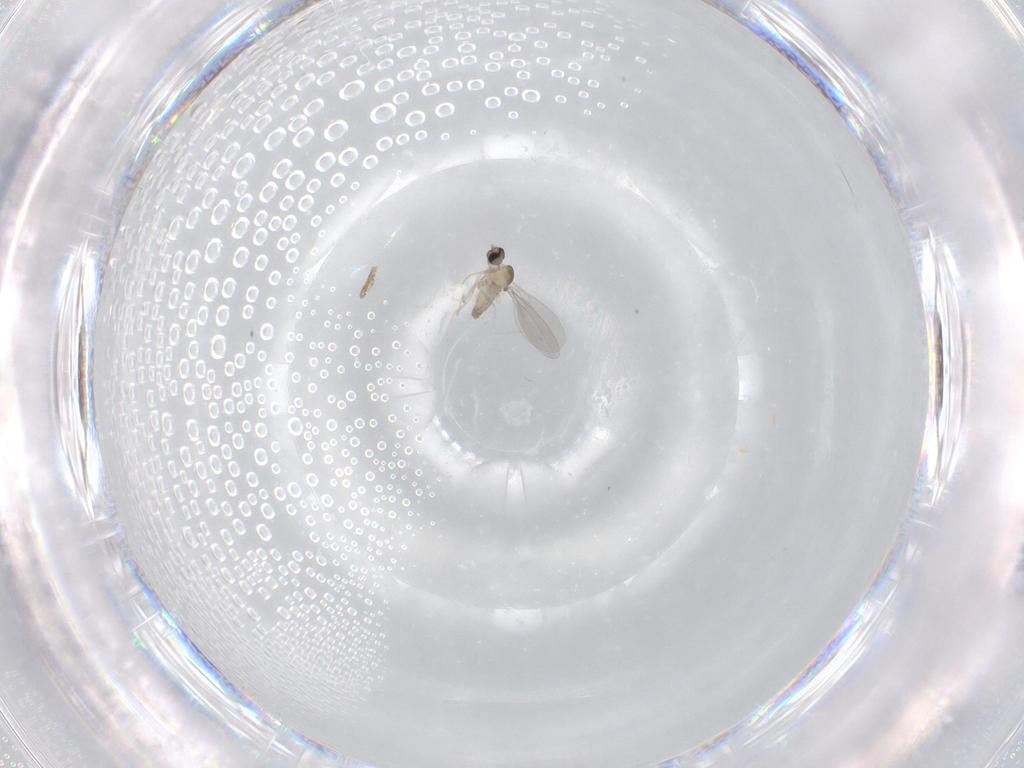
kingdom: Animalia
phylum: Arthropoda
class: Insecta
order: Diptera
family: Cecidomyiidae
